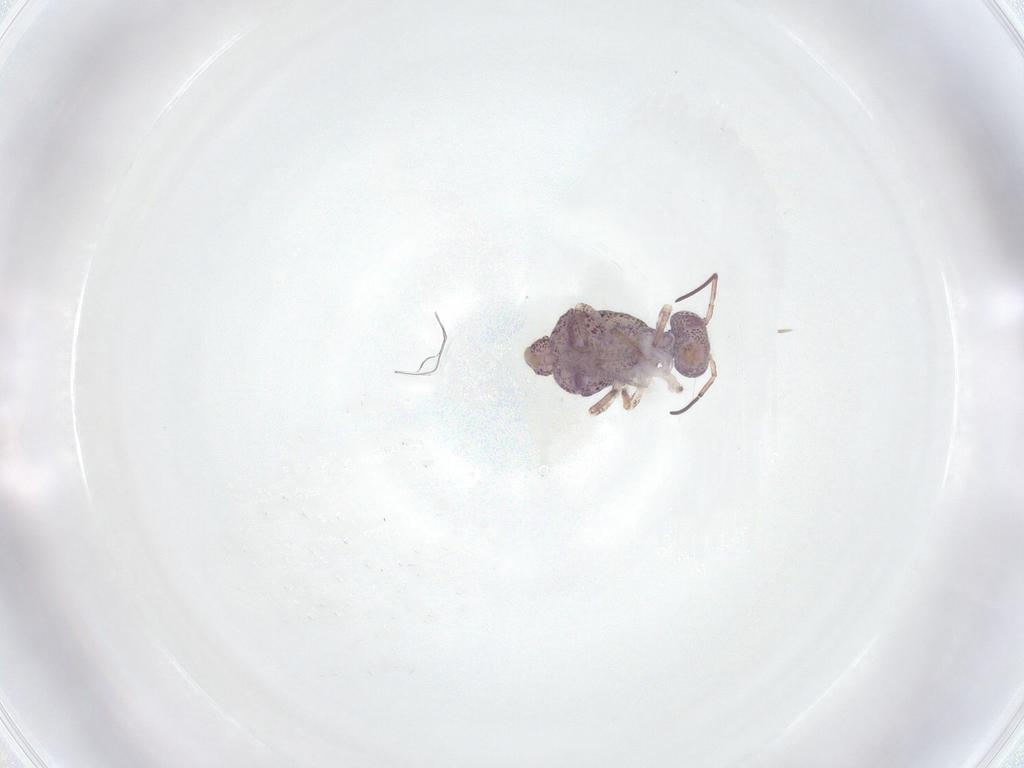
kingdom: Animalia
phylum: Arthropoda
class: Collembola
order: Symphypleona
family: Sminthuridae
